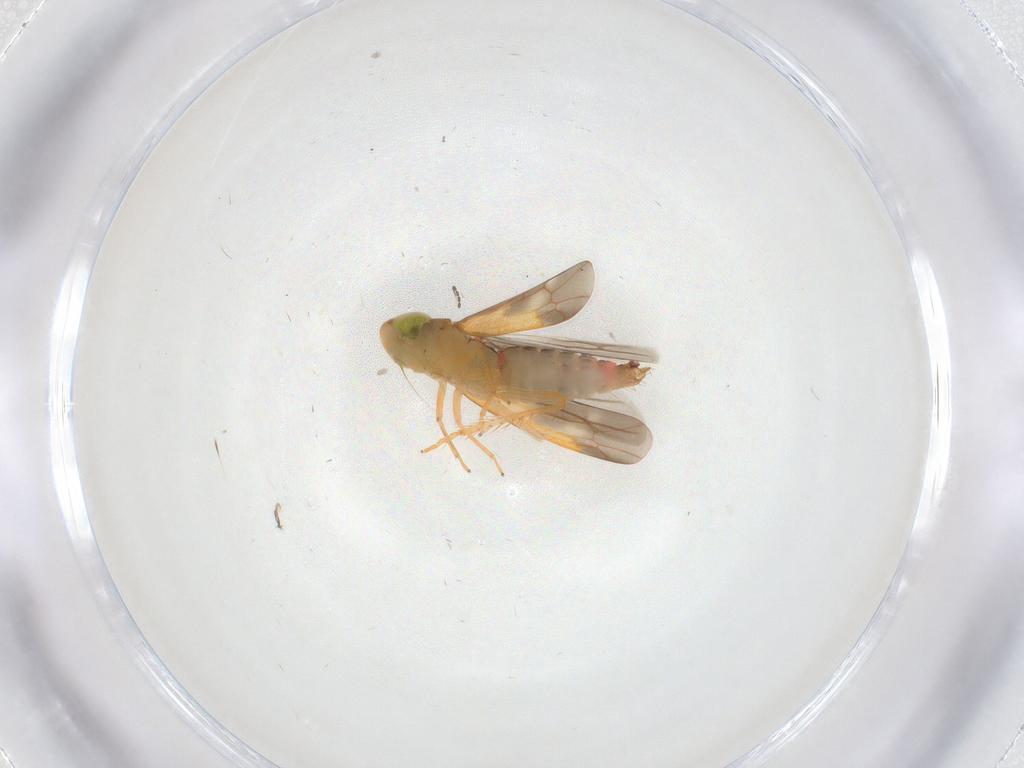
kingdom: Animalia
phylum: Arthropoda
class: Insecta
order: Hemiptera
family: Cicadellidae
